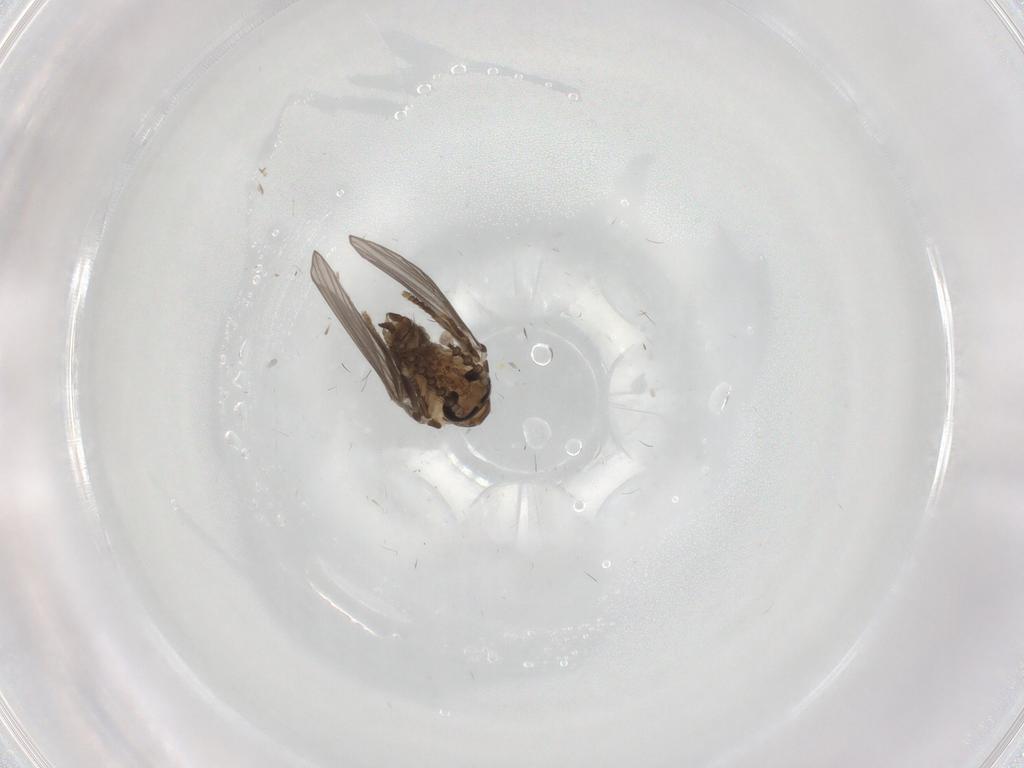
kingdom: Animalia
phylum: Arthropoda
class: Insecta
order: Diptera
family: Psychodidae
